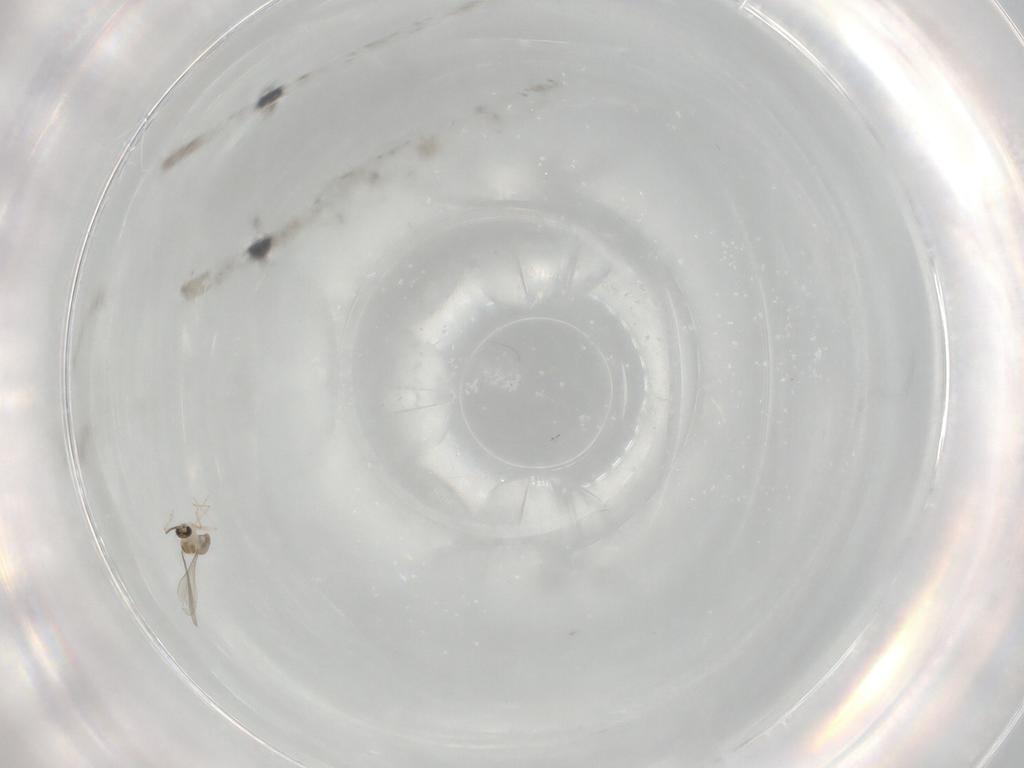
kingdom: Animalia
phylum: Arthropoda
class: Insecta
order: Diptera
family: Cecidomyiidae
